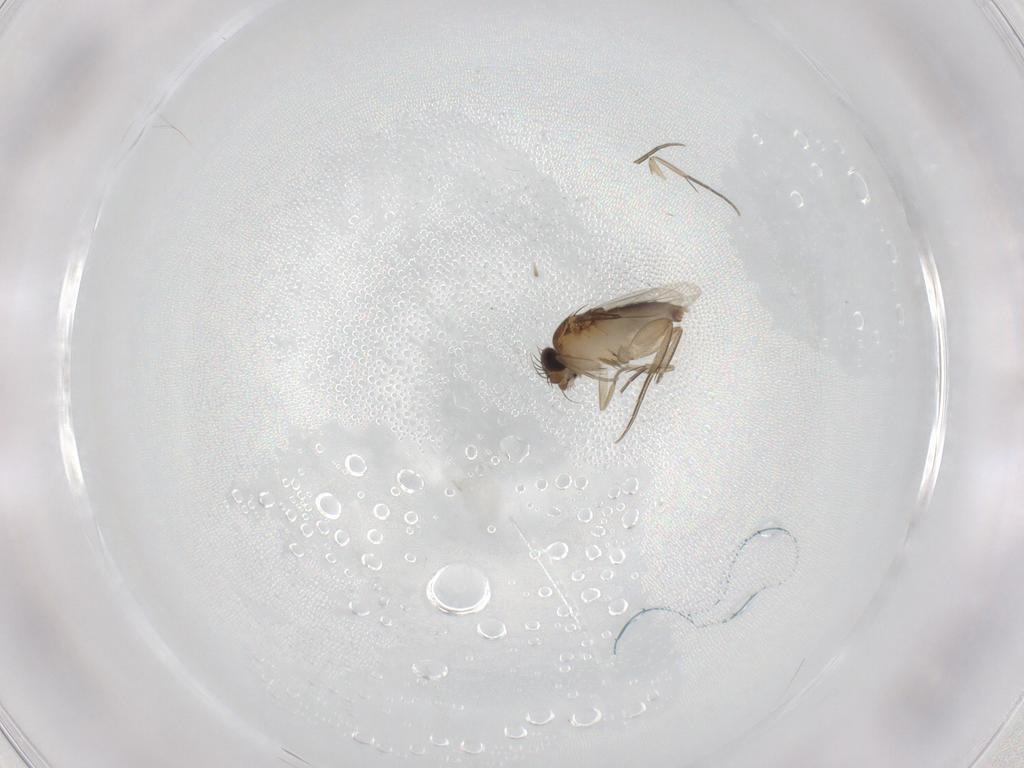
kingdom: Animalia
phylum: Arthropoda
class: Insecta
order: Diptera
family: Phoridae
